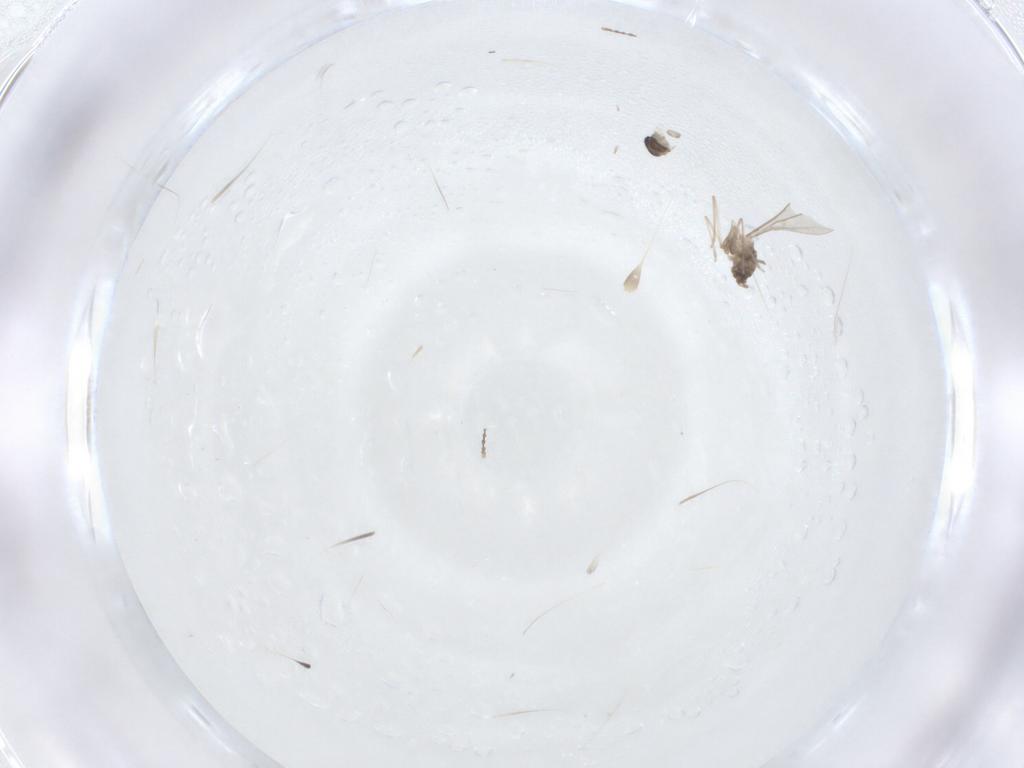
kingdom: Animalia
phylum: Arthropoda
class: Insecta
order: Diptera
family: Cecidomyiidae
